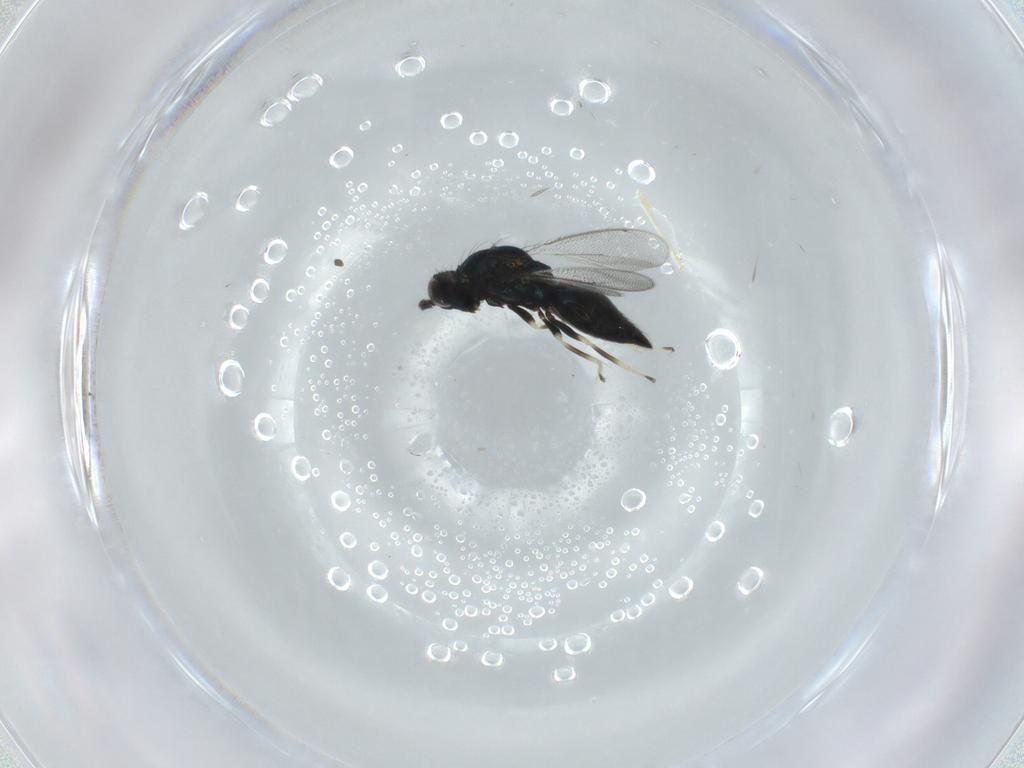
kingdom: Animalia
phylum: Arthropoda
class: Insecta
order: Hymenoptera
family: Eulophidae
